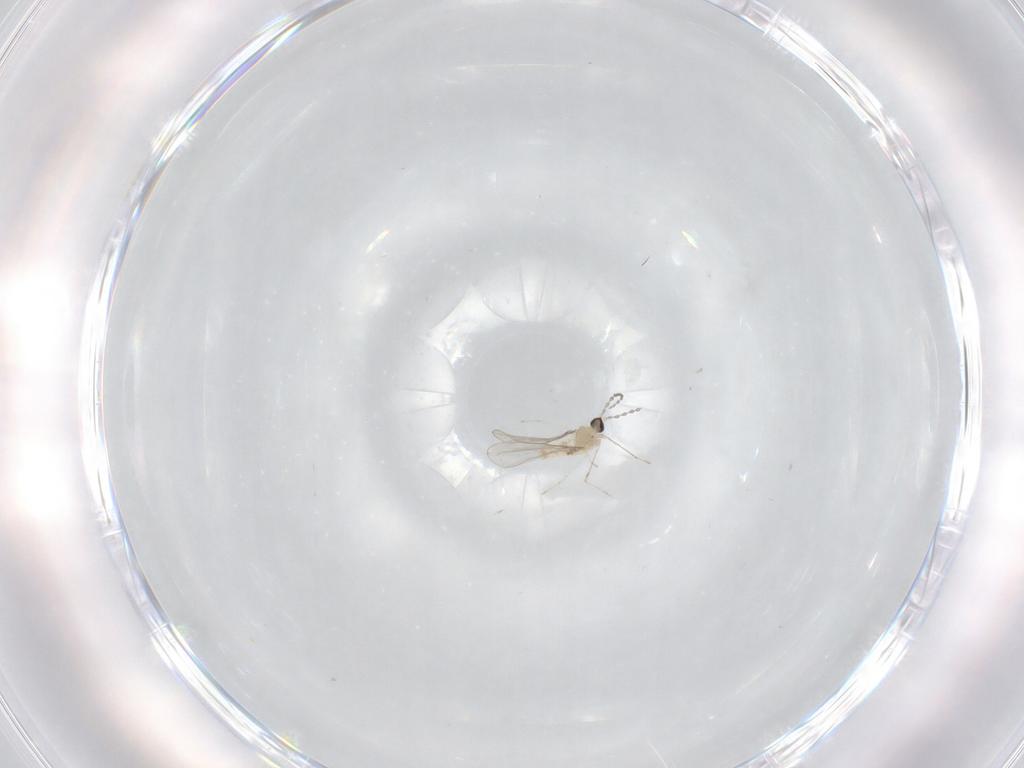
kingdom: Animalia
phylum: Arthropoda
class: Insecta
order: Diptera
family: Cecidomyiidae
